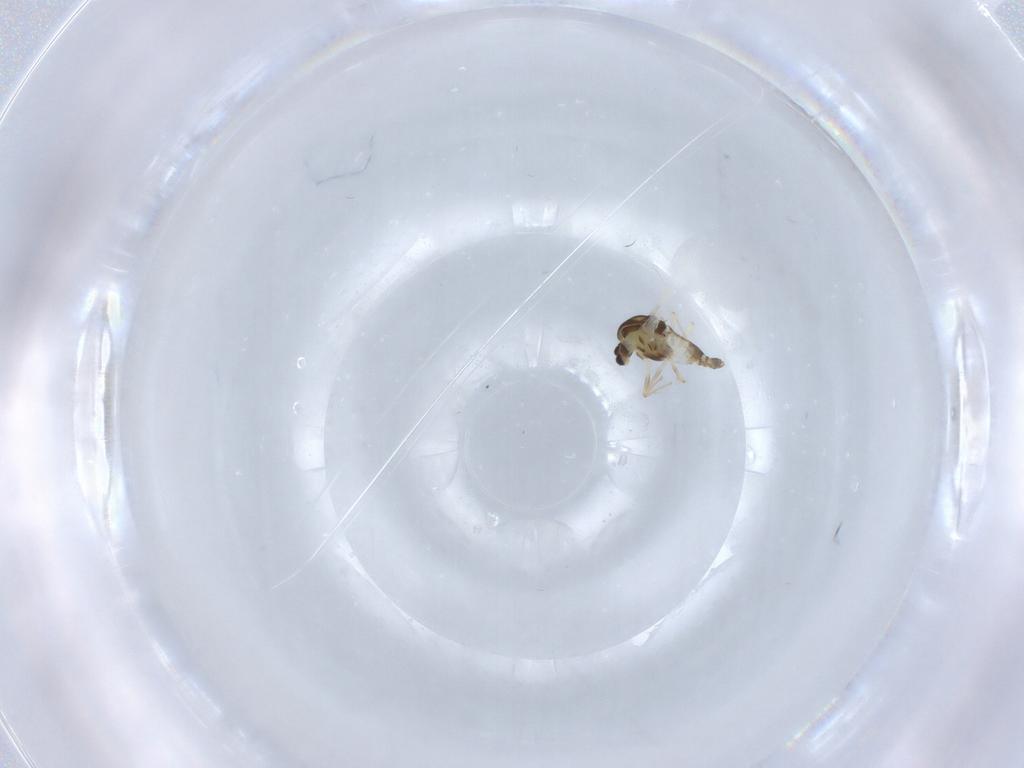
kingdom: Animalia
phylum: Arthropoda
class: Insecta
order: Diptera
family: Chironomidae
